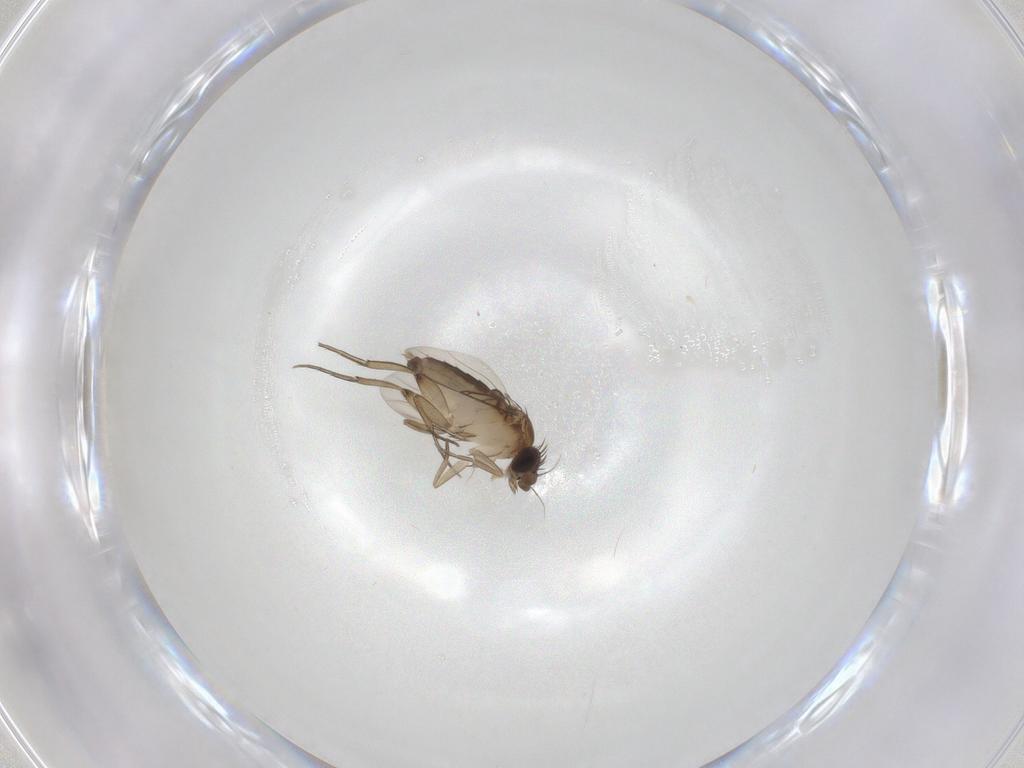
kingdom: Animalia
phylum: Arthropoda
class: Insecta
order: Diptera
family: Phoridae
